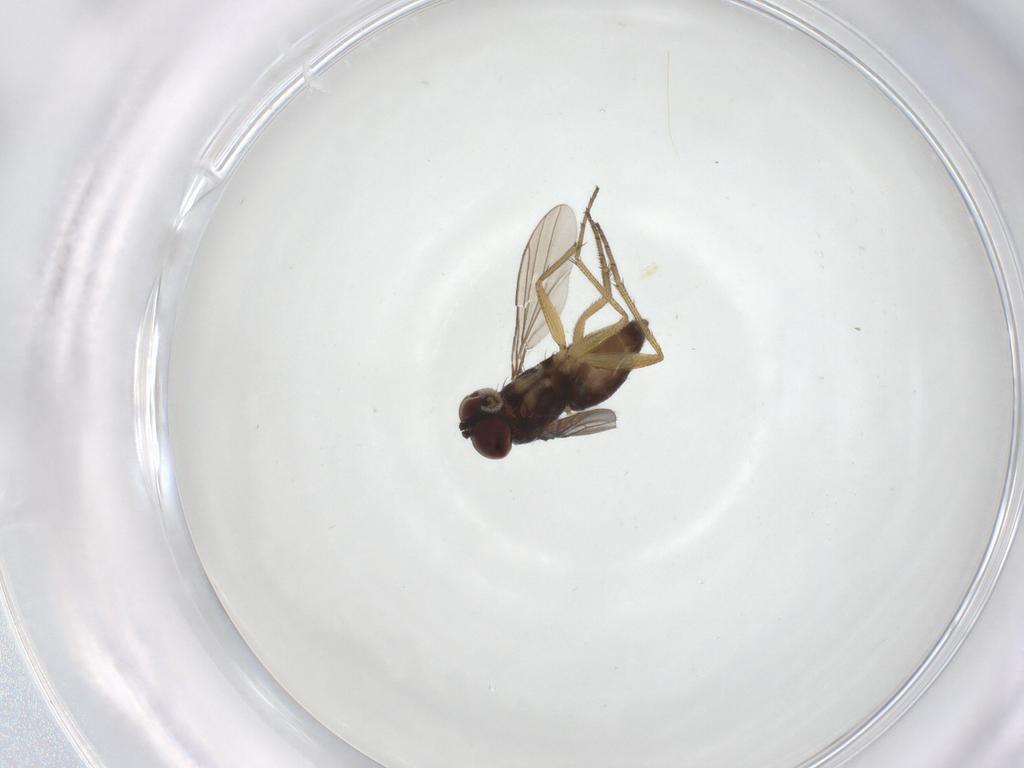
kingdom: Animalia
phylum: Arthropoda
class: Insecta
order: Diptera
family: Dolichopodidae
